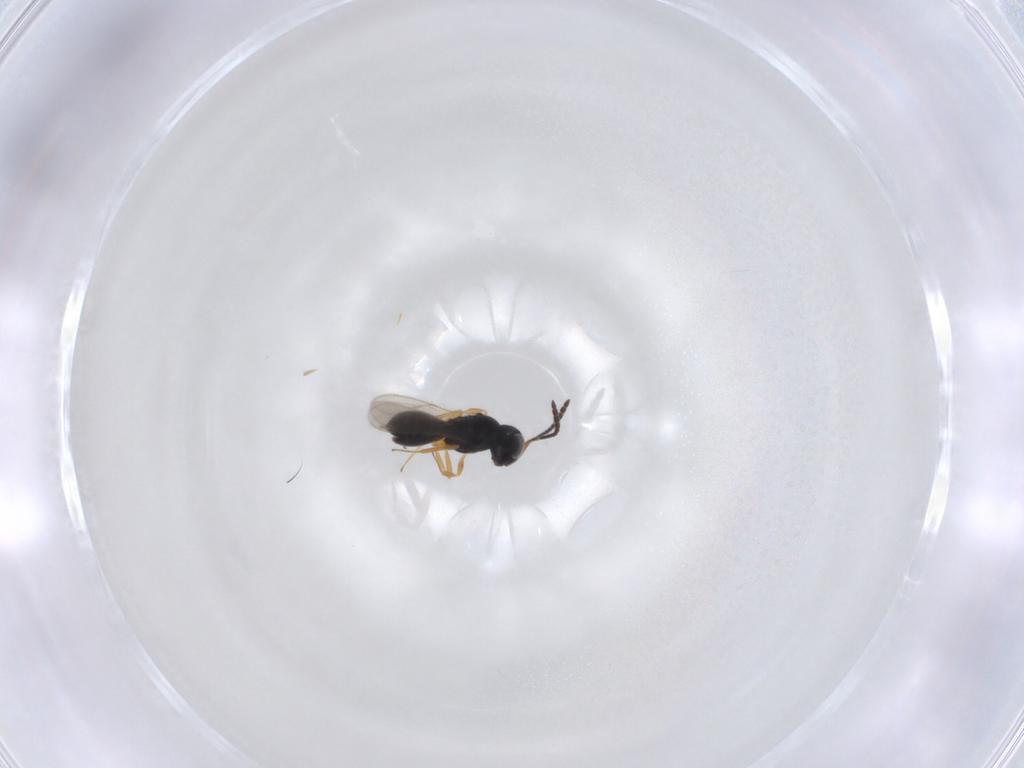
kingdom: Animalia
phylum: Arthropoda
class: Insecta
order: Hymenoptera
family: Scelionidae
